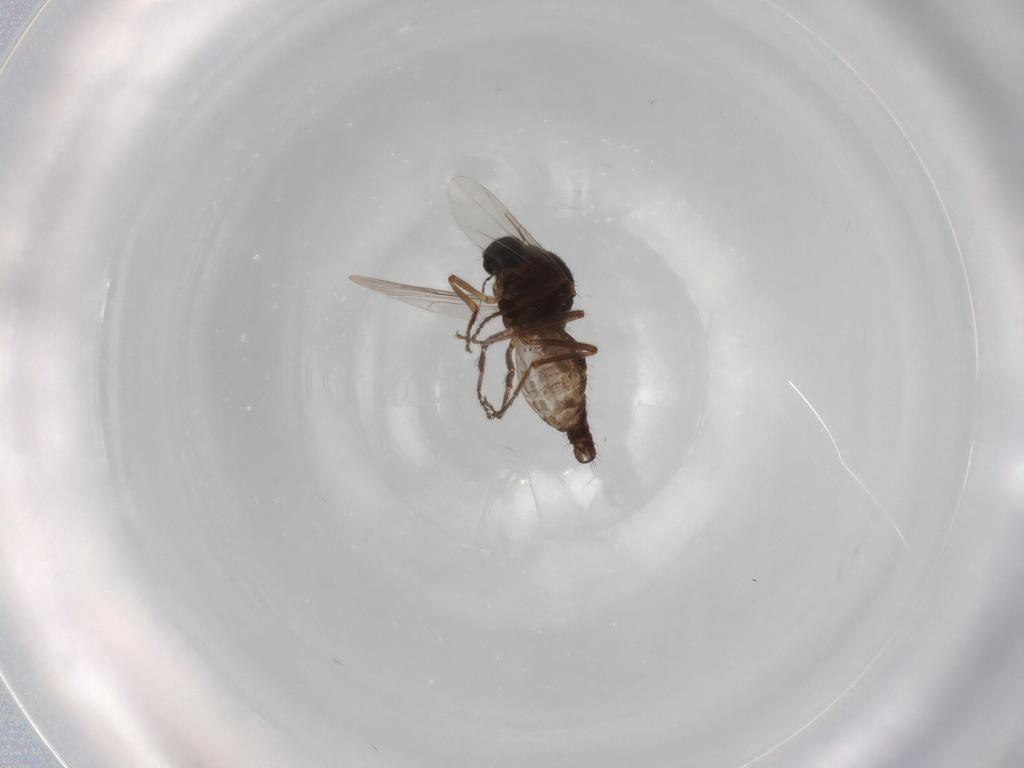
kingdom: Animalia
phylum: Arthropoda
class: Insecta
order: Diptera
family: Ceratopogonidae
